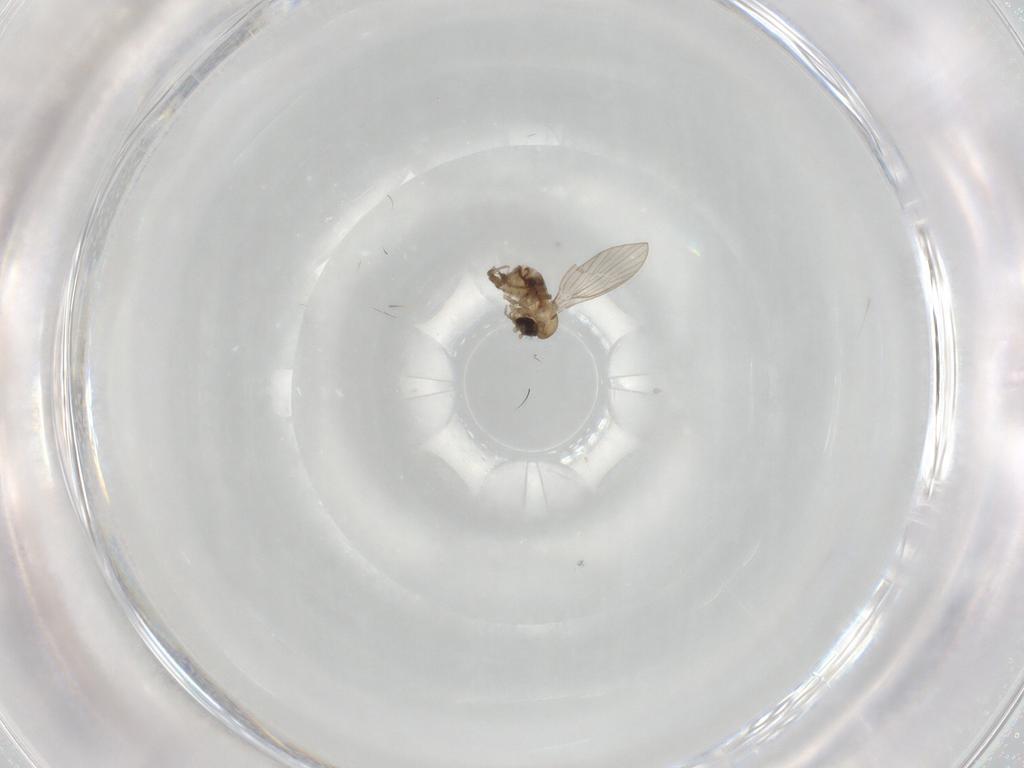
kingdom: Animalia
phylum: Arthropoda
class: Insecta
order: Diptera
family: Psychodidae
